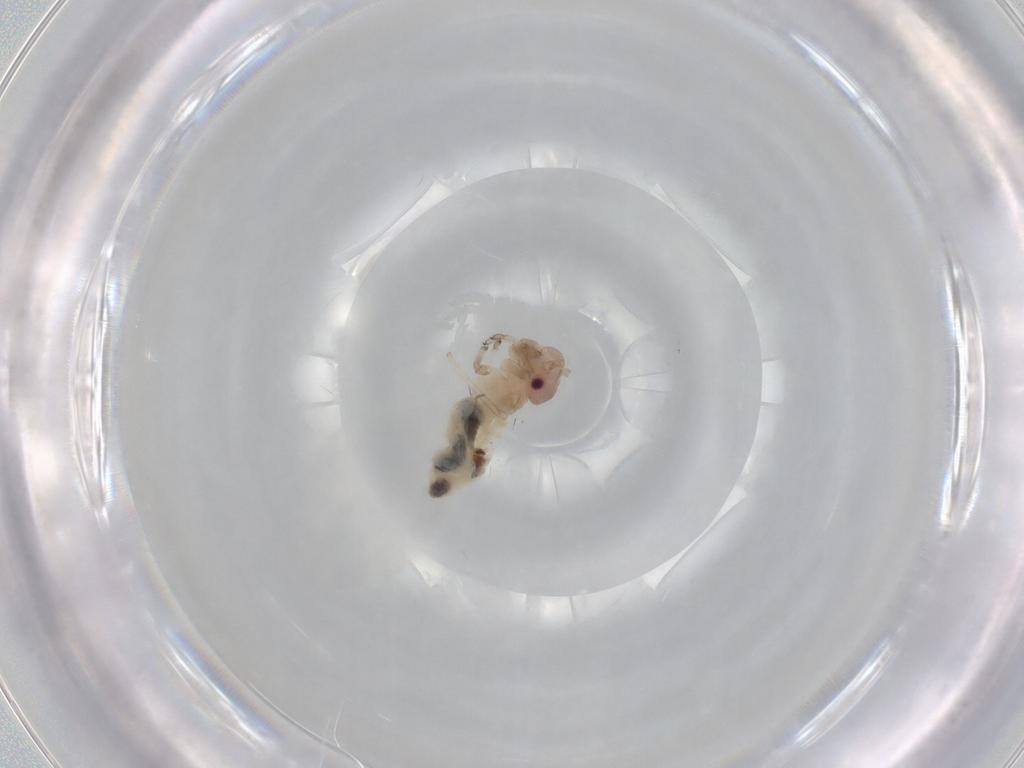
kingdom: Animalia
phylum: Arthropoda
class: Insecta
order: Psocodea
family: Stenopsocidae
